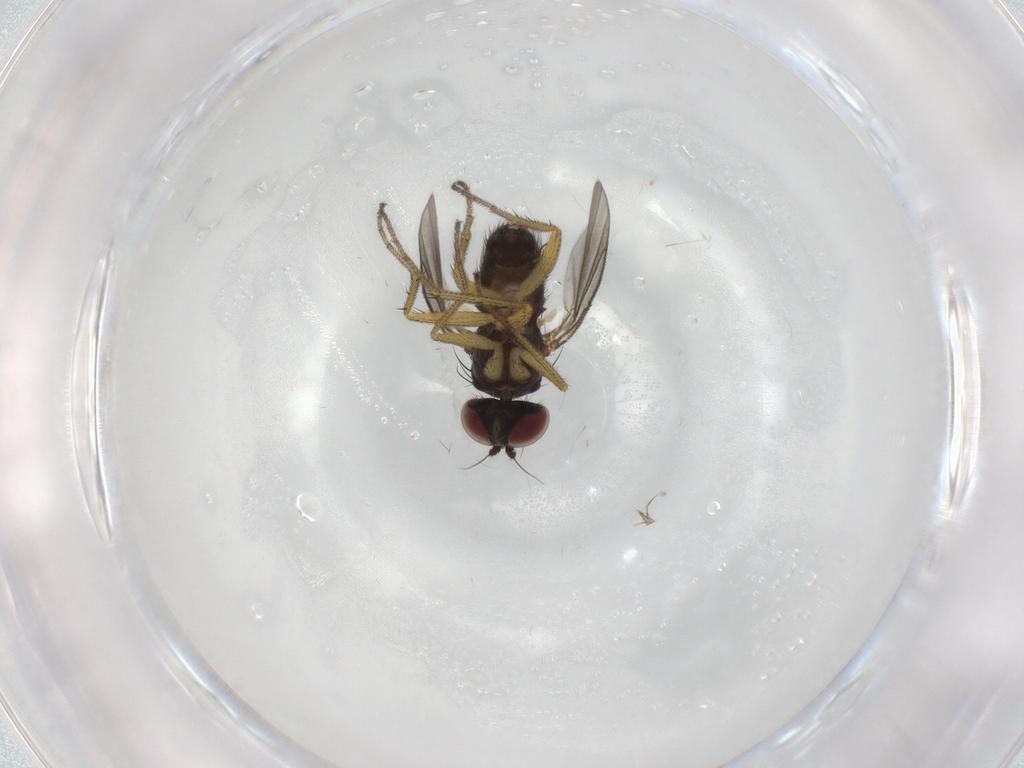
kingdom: Animalia
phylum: Arthropoda
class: Insecta
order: Diptera
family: Dolichopodidae
